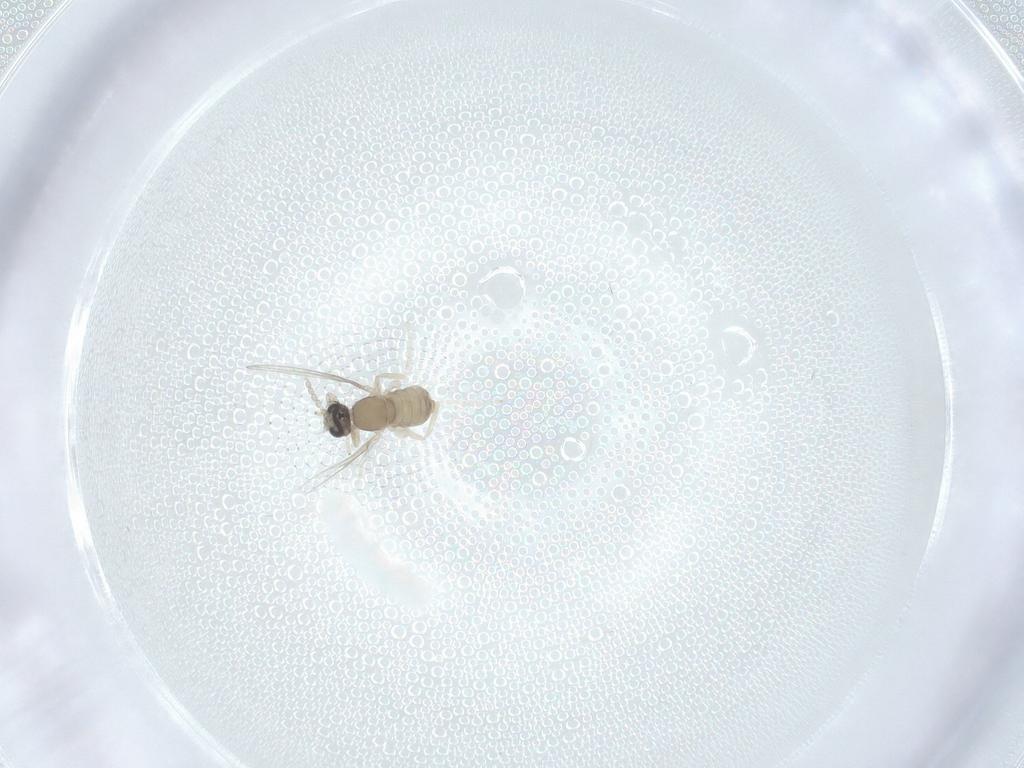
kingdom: Animalia
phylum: Arthropoda
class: Insecta
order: Diptera
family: Cecidomyiidae
